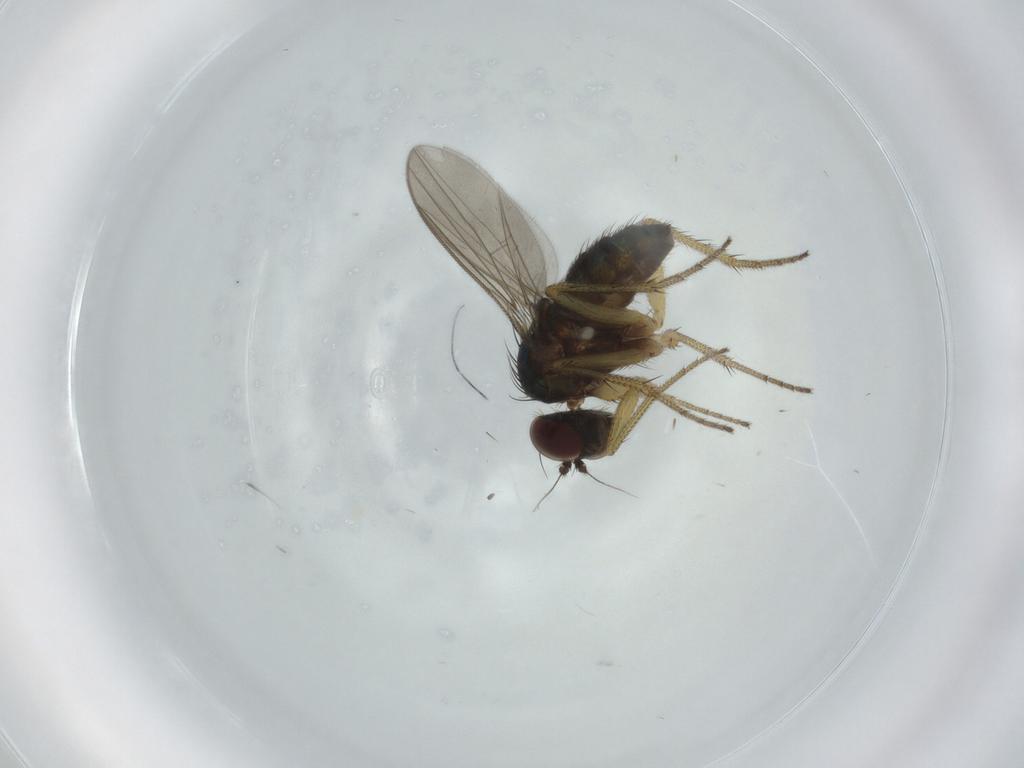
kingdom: Animalia
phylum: Arthropoda
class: Insecta
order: Diptera
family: Dolichopodidae
